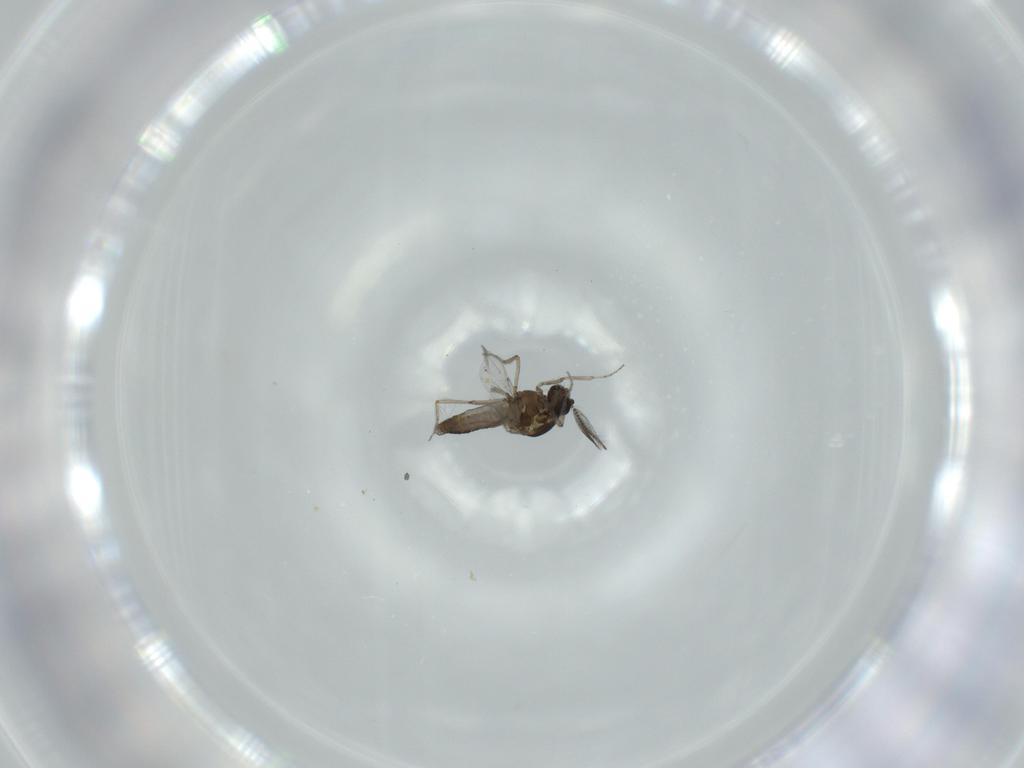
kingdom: Animalia
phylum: Arthropoda
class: Insecta
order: Diptera
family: Ceratopogonidae
